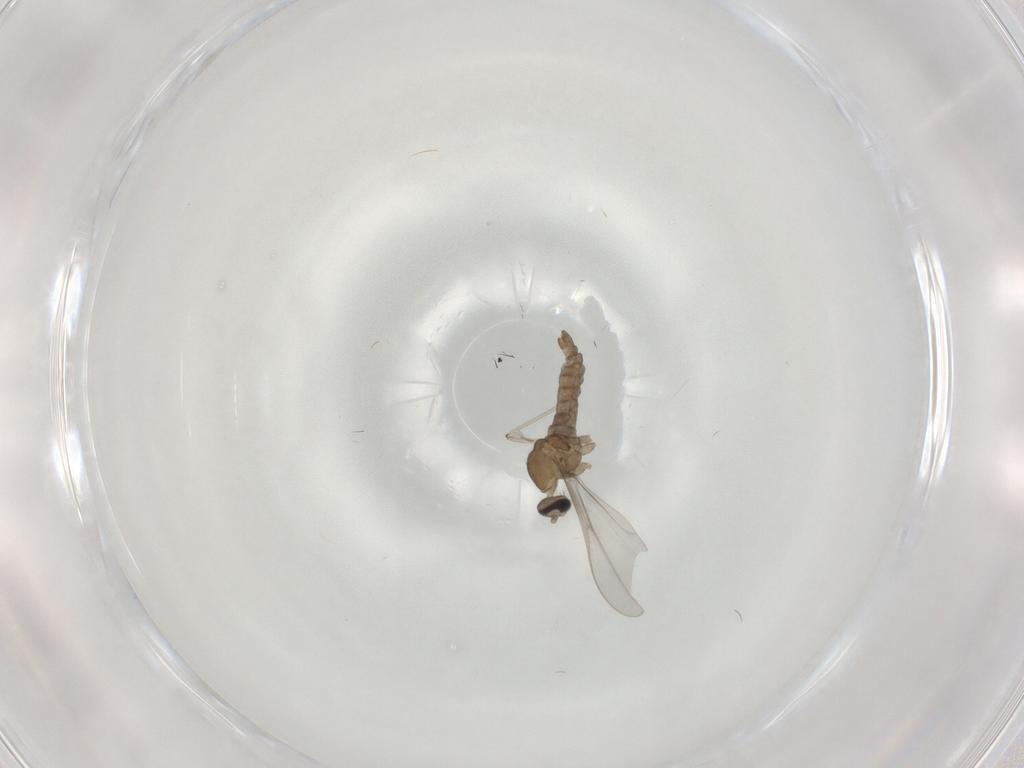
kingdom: Animalia
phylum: Arthropoda
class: Insecta
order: Diptera
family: Cecidomyiidae
